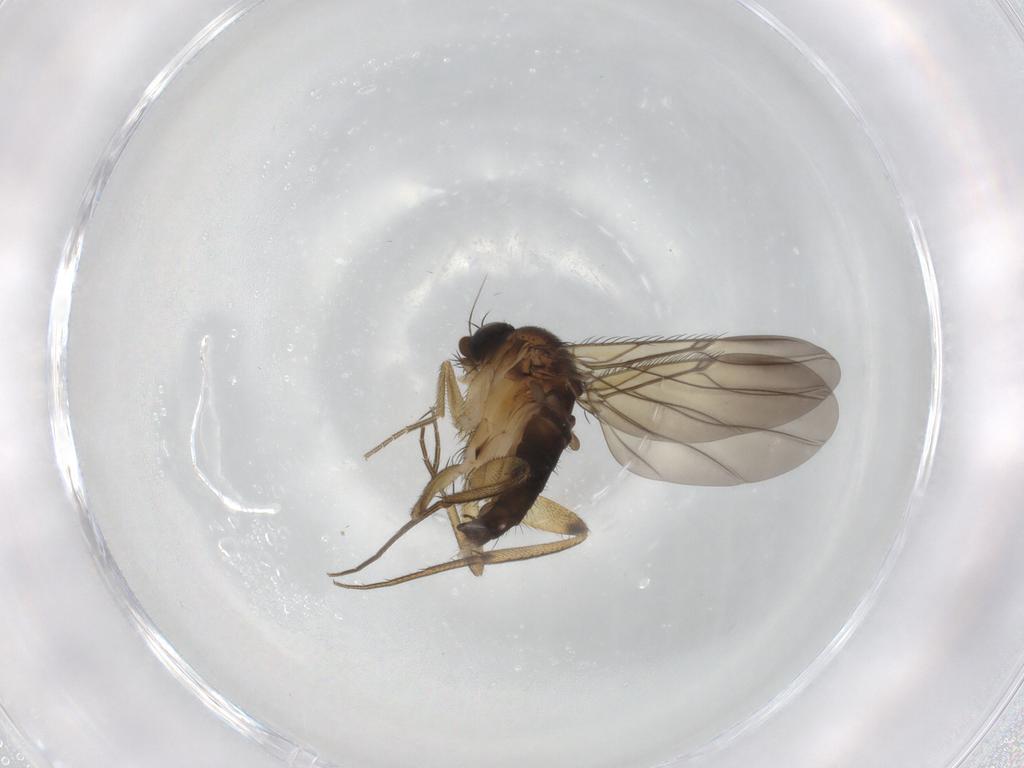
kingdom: Animalia
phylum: Arthropoda
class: Insecta
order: Diptera
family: Phoridae
